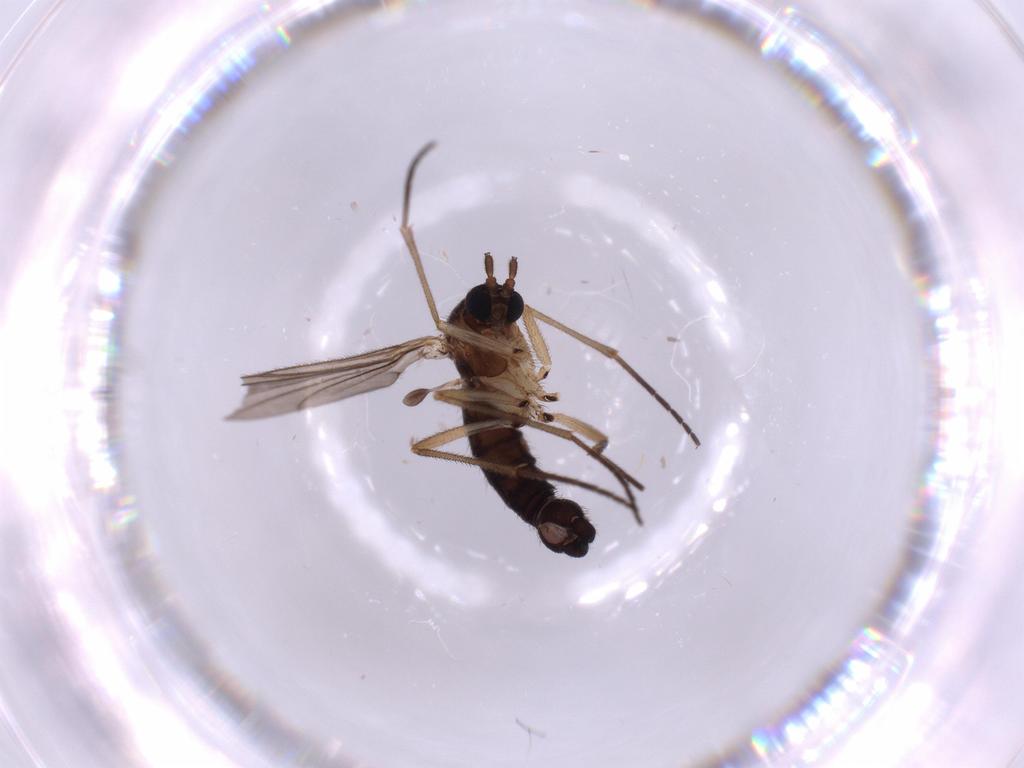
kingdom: Animalia
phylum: Arthropoda
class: Insecta
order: Diptera
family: Sciaridae
